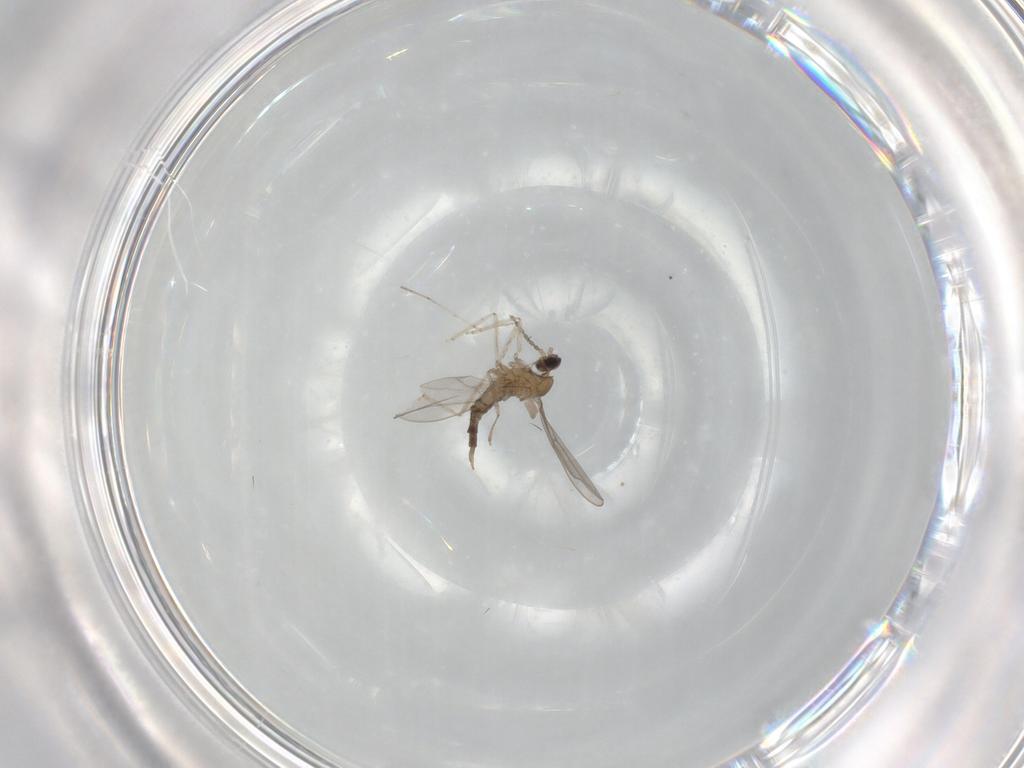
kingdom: Animalia
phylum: Arthropoda
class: Insecta
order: Diptera
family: Cecidomyiidae
